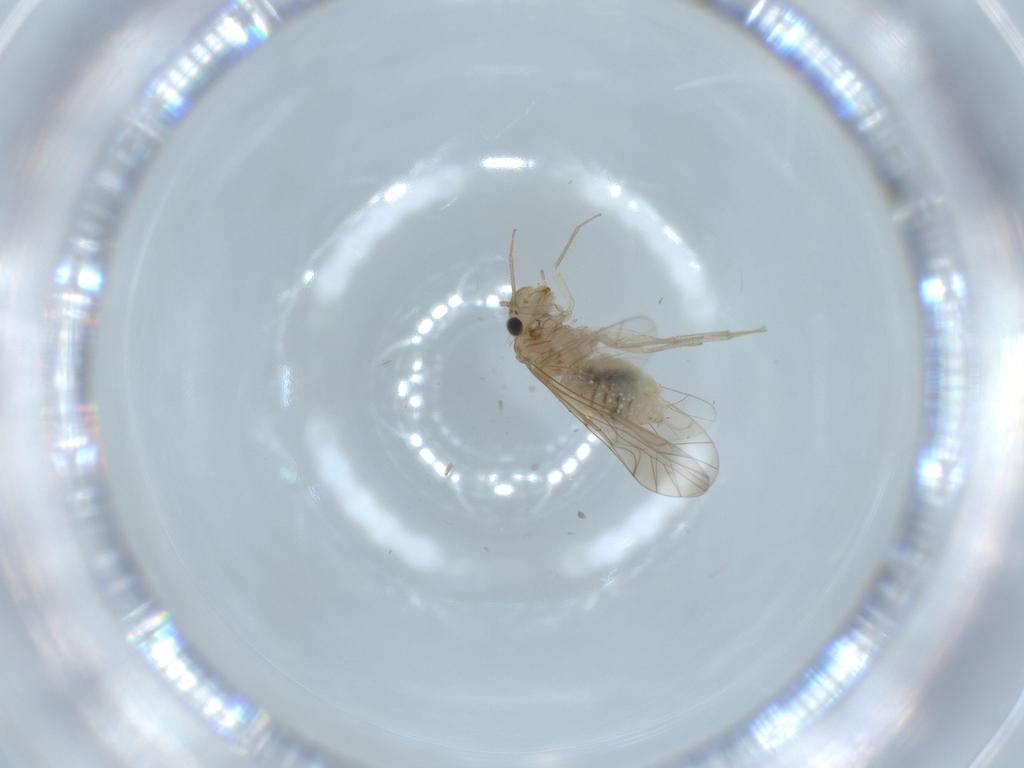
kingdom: Animalia
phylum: Arthropoda
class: Insecta
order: Psocodea
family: Lachesillidae
